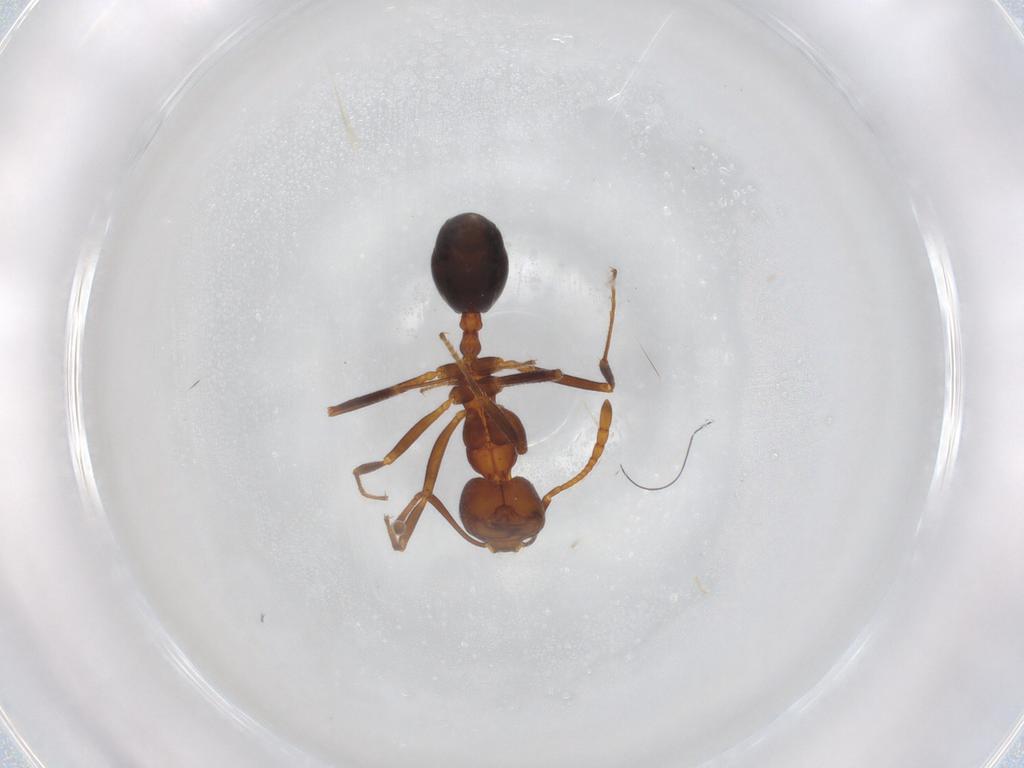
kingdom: Animalia
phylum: Arthropoda
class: Insecta
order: Hymenoptera
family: Formicidae
